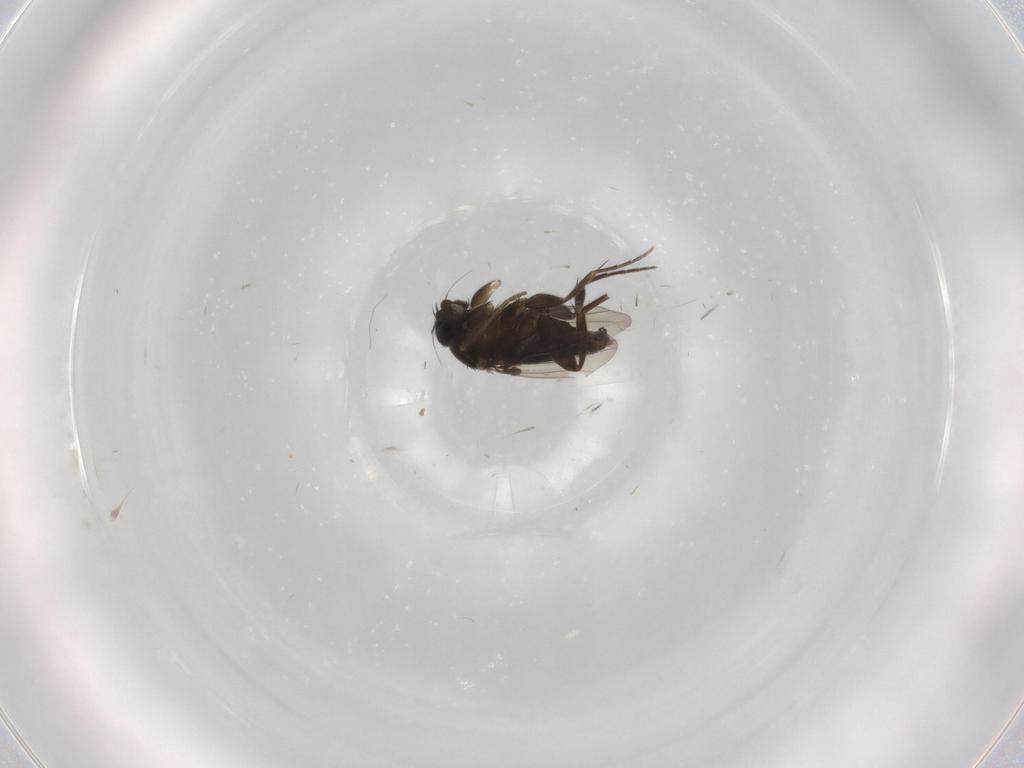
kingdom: Animalia
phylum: Arthropoda
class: Insecta
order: Diptera
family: Phoridae
